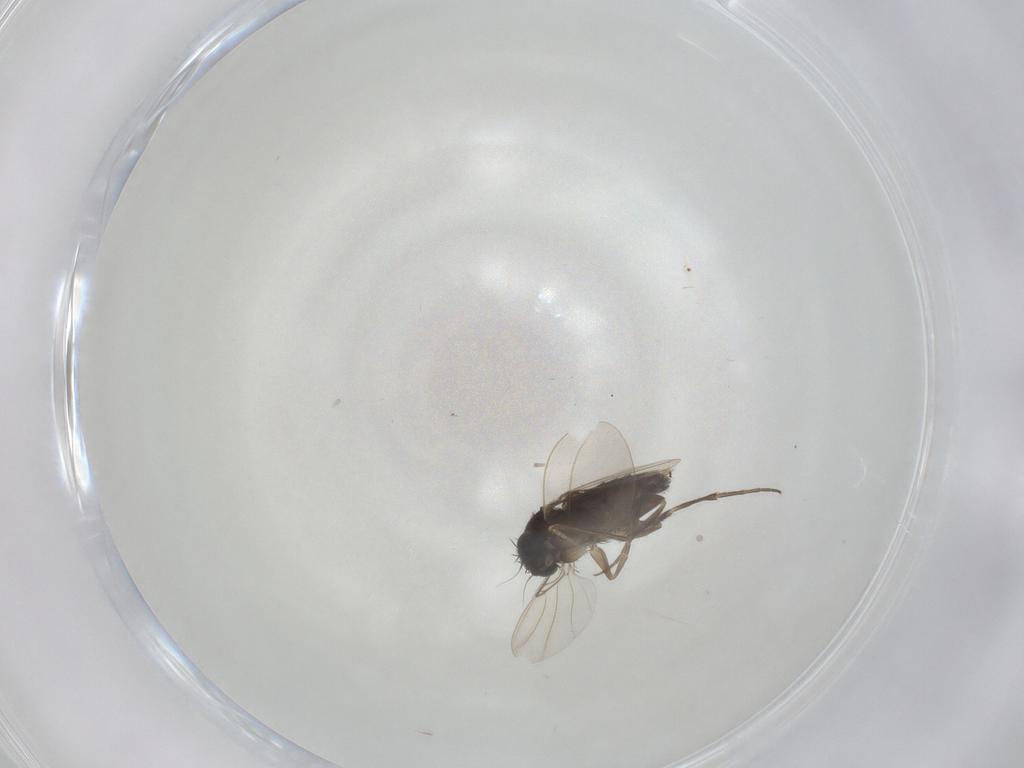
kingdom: Animalia
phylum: Arthropoda
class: Insecta
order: Diptera
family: Phoridae
